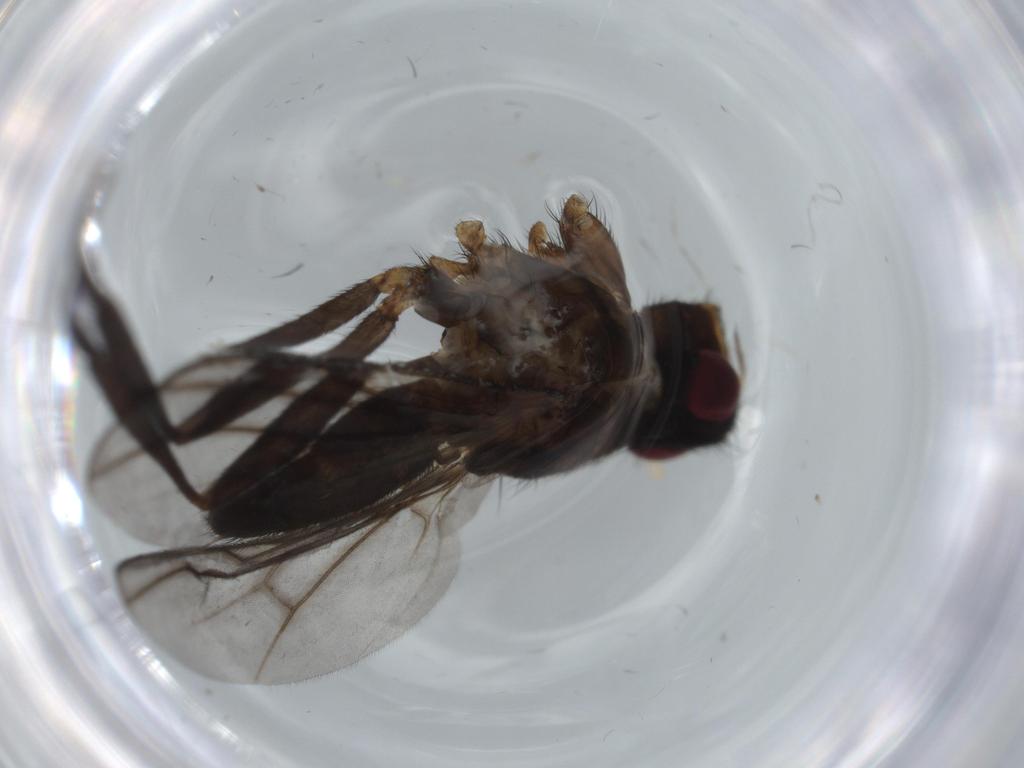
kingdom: Animalia
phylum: Arthropoda
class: Insecta
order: Diptera
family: Calliphoridae
